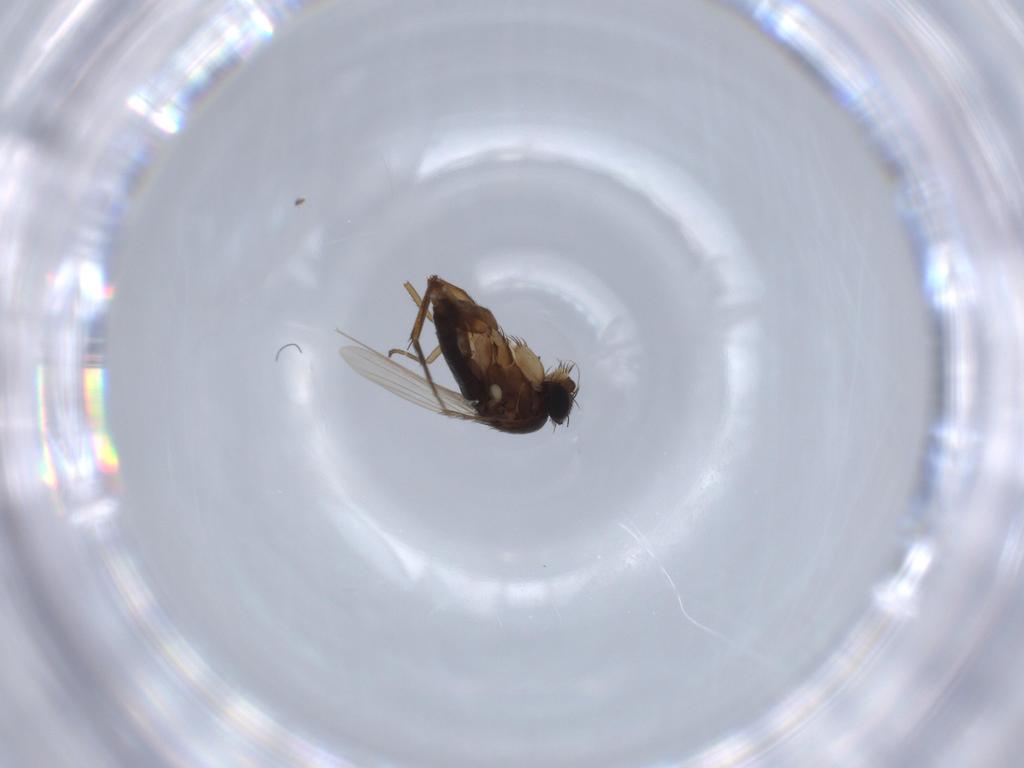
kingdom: Animalia
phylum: Arthropoda
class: Insecta
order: Diptera
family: Phoridae
